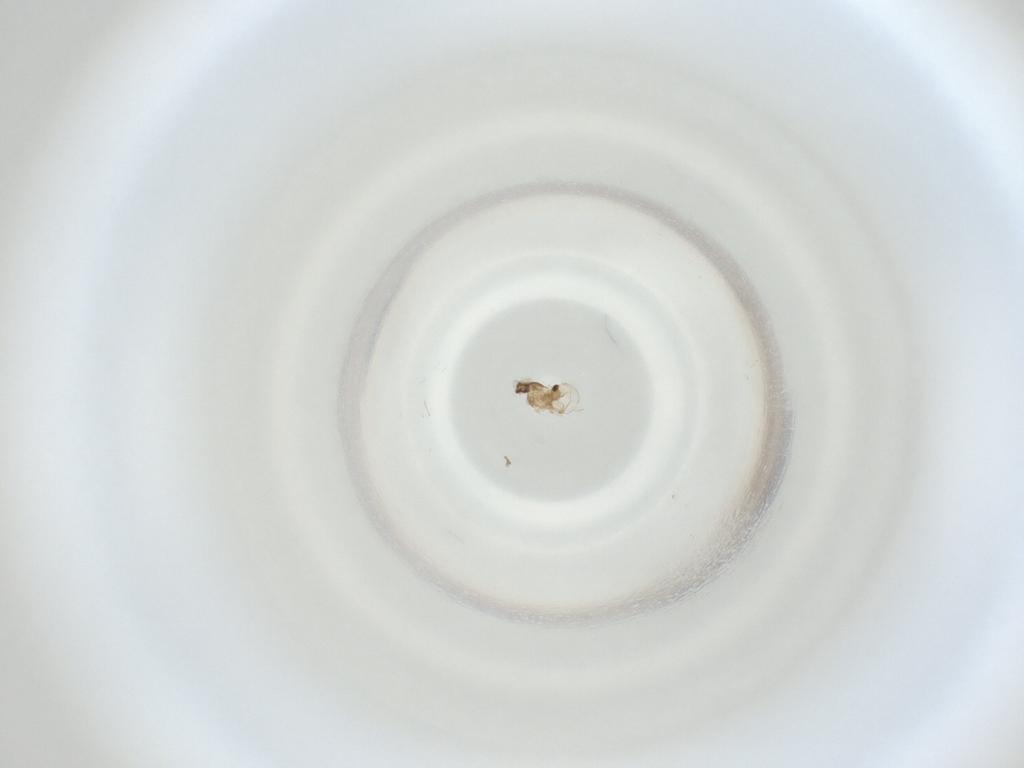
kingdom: Animalia
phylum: Arthropoda
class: Insecta
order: Diptera
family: Cecidomyiidae
